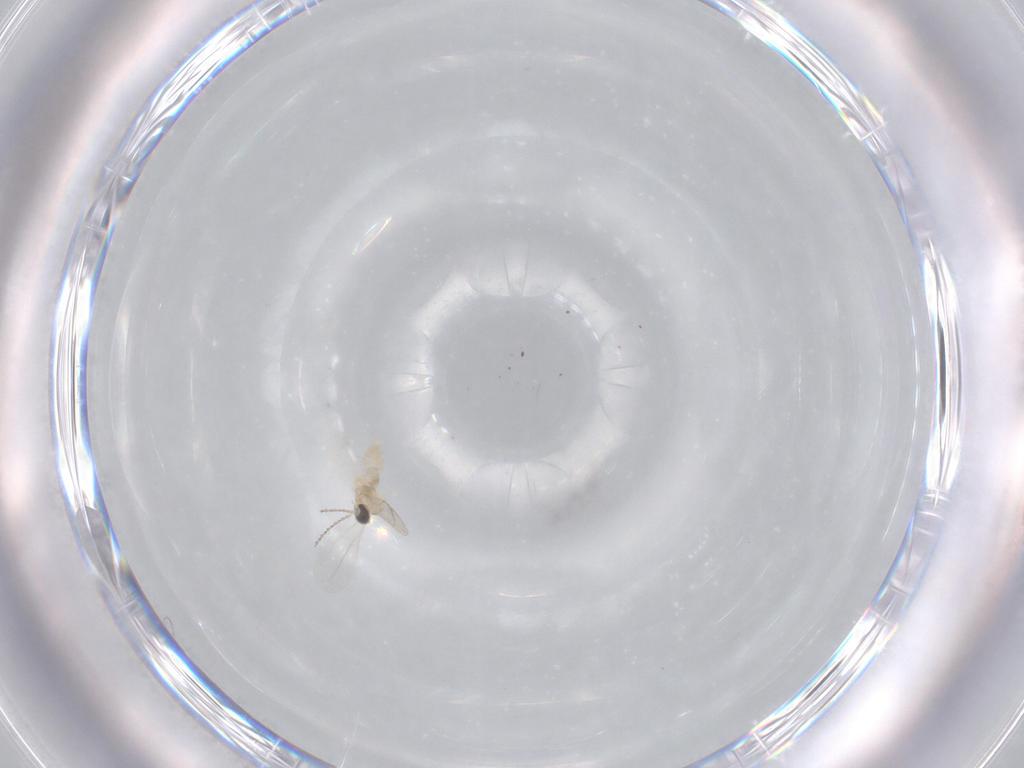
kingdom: Animalia
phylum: Arthropoda
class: Insecta
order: Diptera
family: Cecidomyiidae
